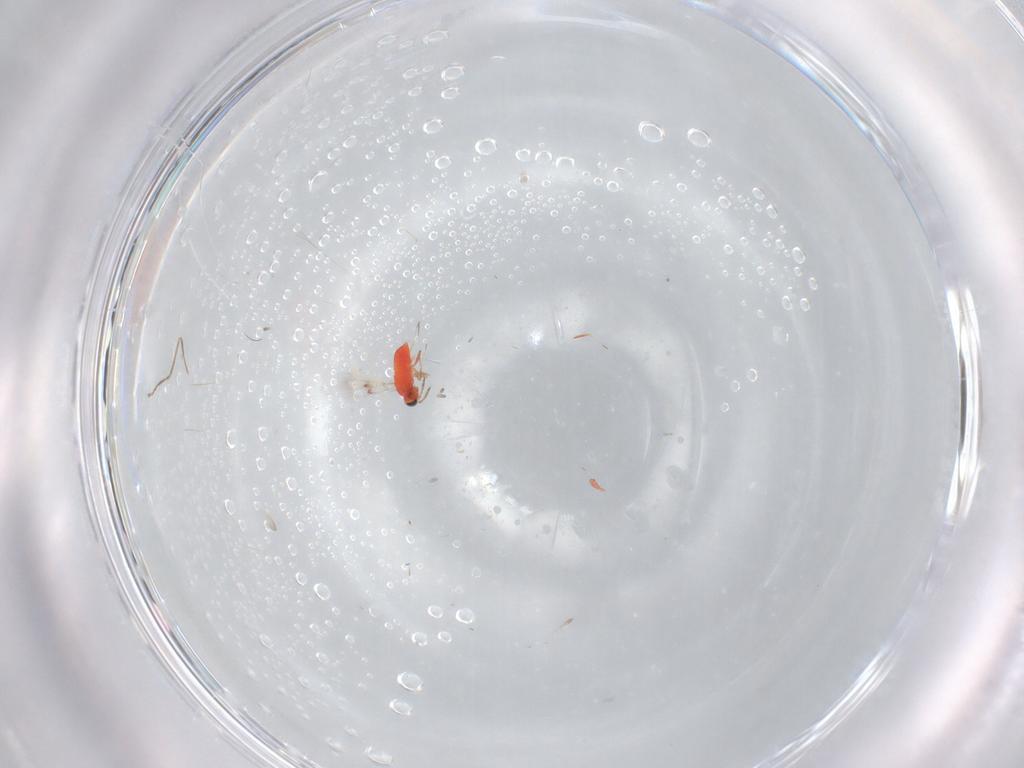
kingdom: Animalia
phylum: Arthropoda
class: Insecta
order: Hymenoptera
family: Trichogrammatidae
